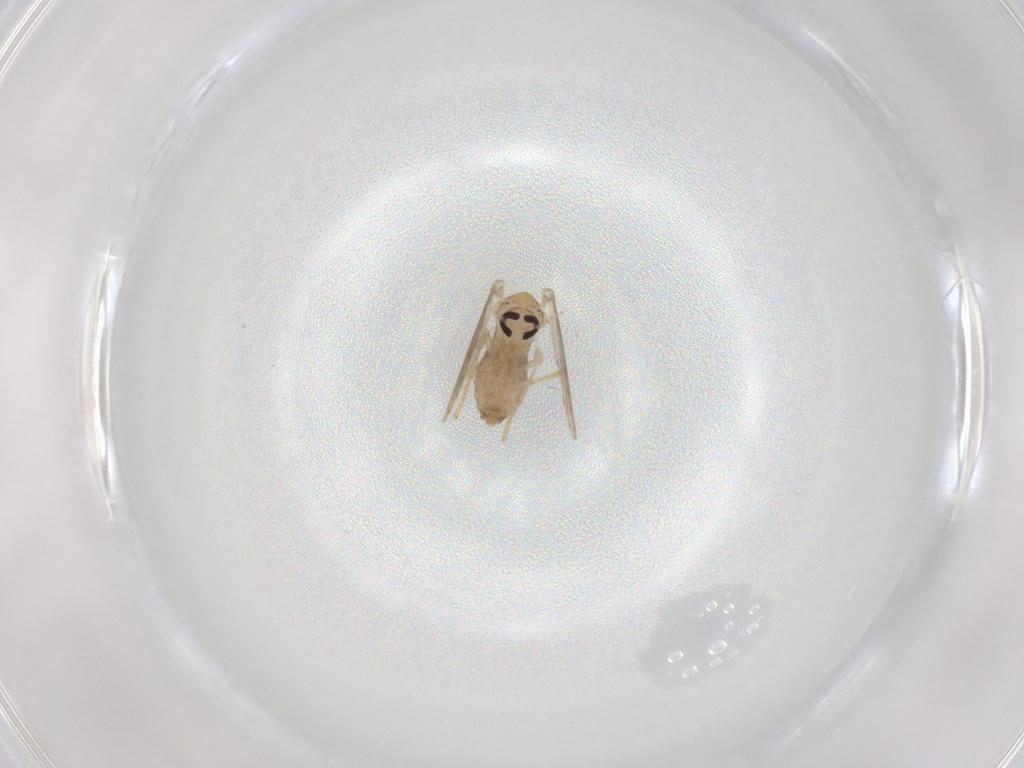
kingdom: Animalia
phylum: Arthropoda
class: Insecta
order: Diptera
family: Psychodidae
